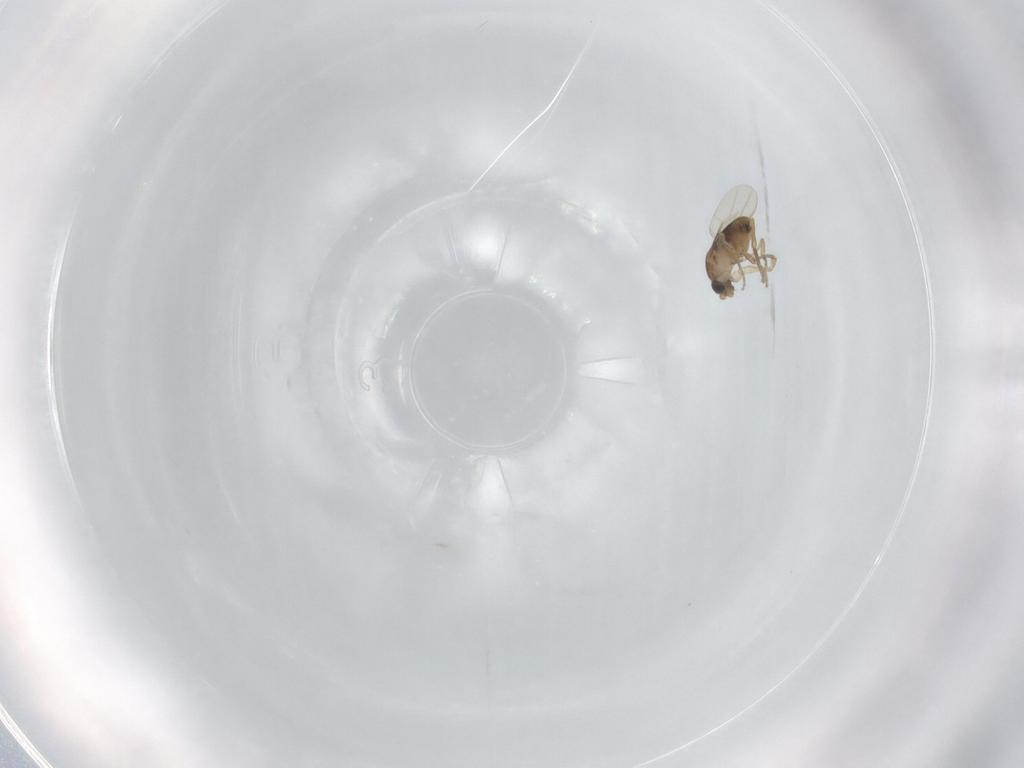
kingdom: Animalia
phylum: Arthropoda
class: Insecta
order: Diptera
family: Phoridae
